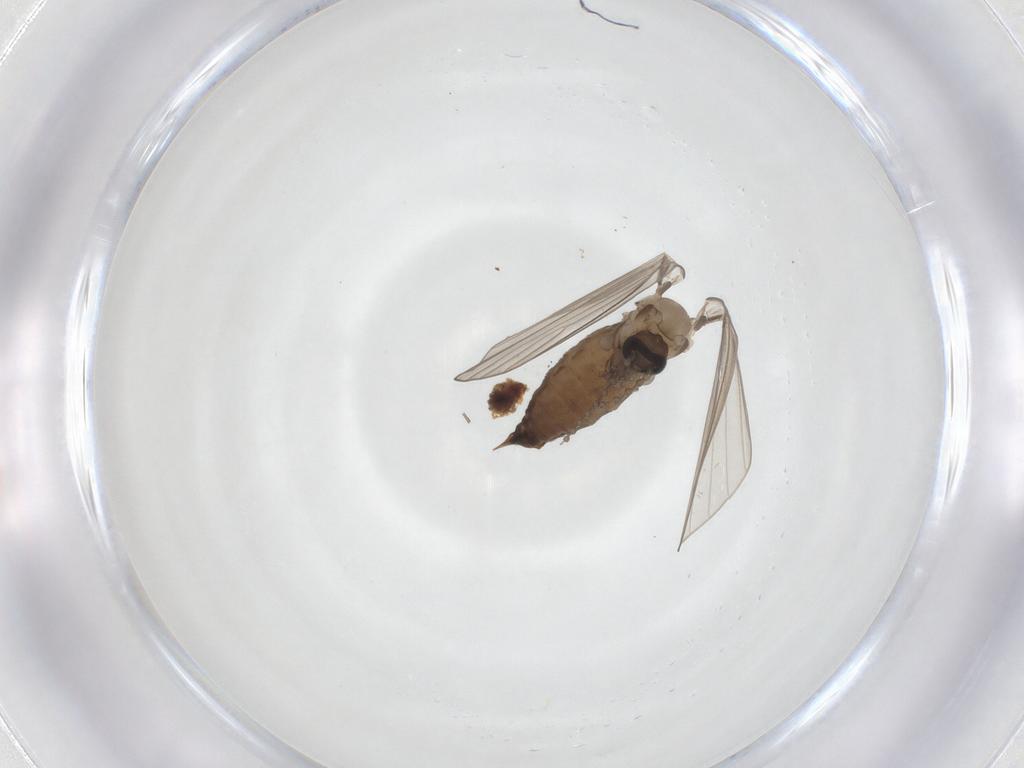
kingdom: Animalia
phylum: Arthropoda
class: Insecta
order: Diptera
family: Psychodidae
